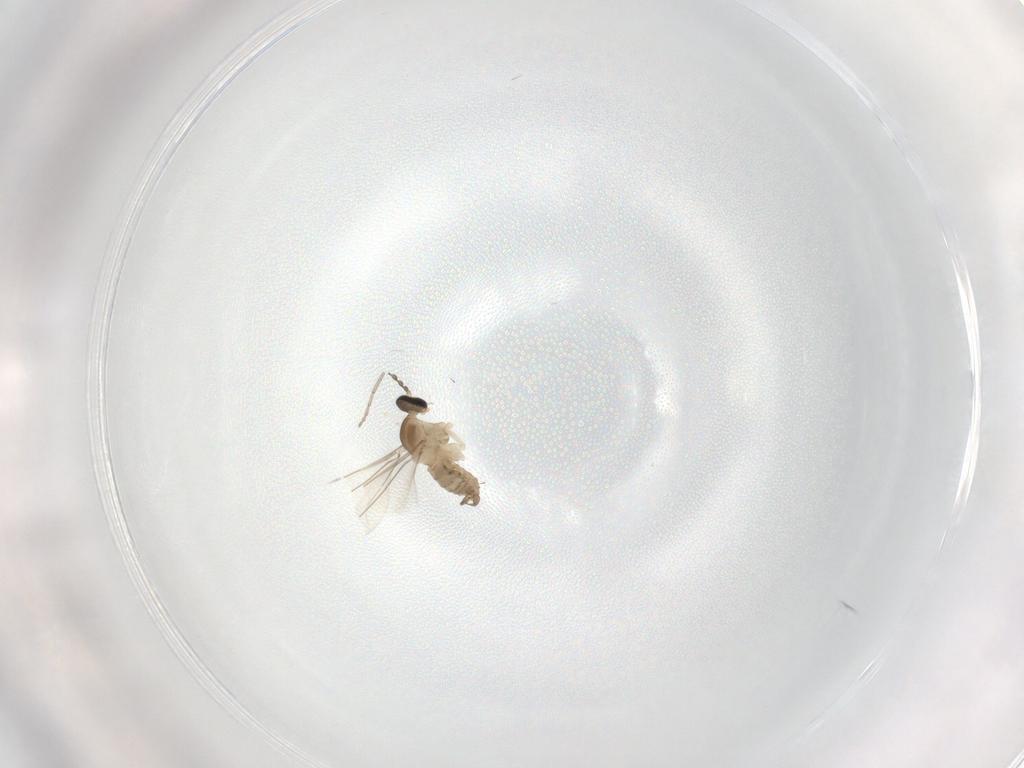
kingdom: Animalia
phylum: Arthropoda
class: Insecta
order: Diptera
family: Cecidomyiidae
